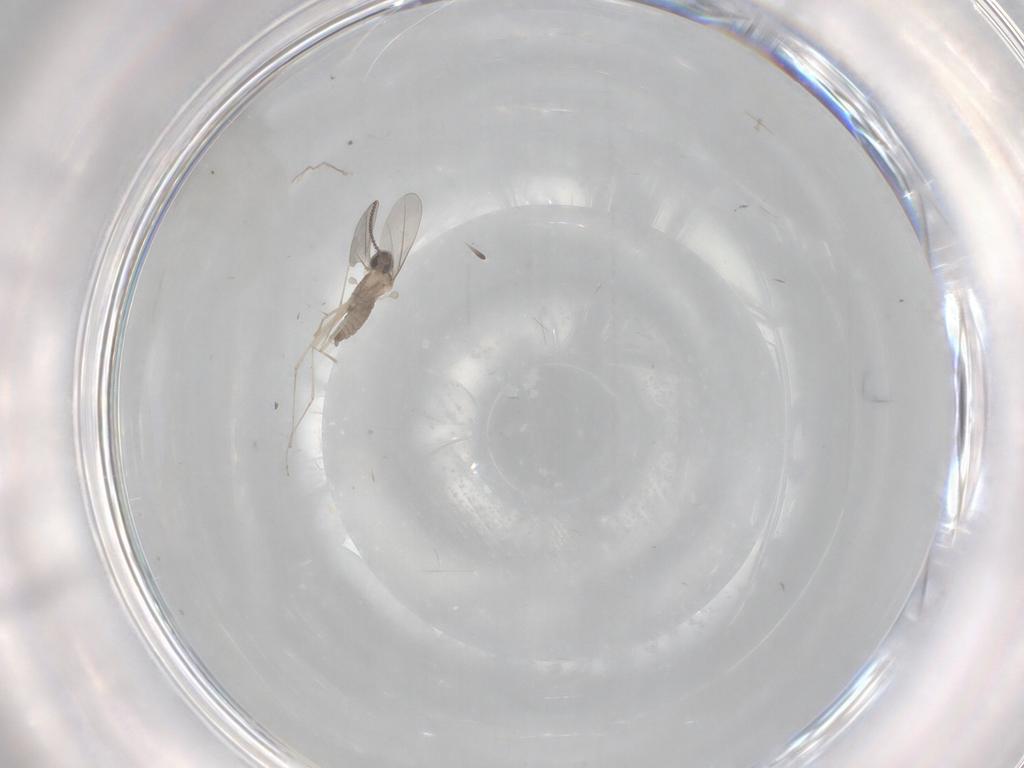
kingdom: Animalia
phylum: Arthropoda
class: Insecta
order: Diptera
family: Cecidomyiidae
